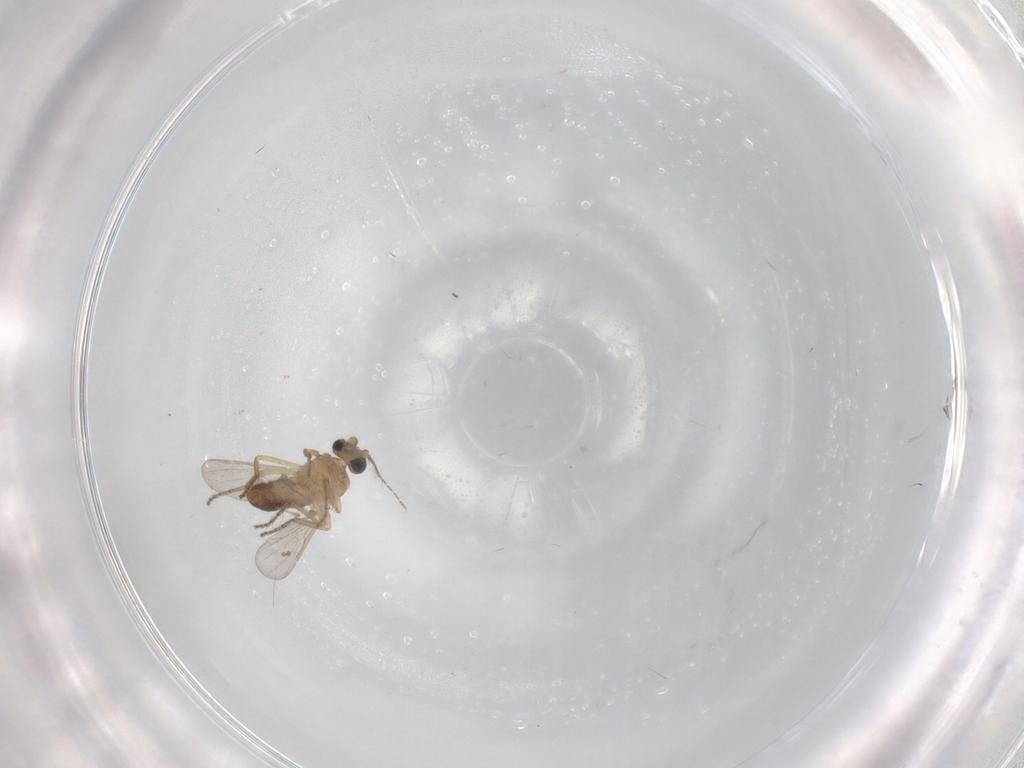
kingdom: Animalia
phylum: Arthropoda
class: Insecta
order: Diptera
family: Ceratopogonidae
